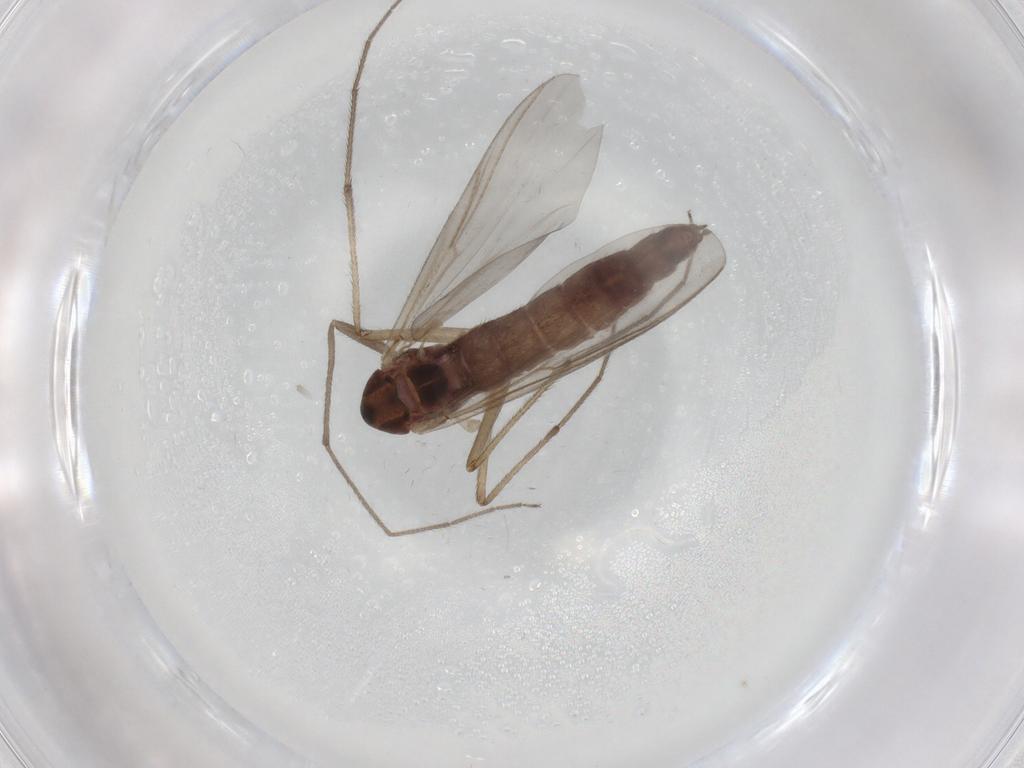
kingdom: Animalia
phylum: Arthropoda
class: Insecta
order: Diptera
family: Chironomidae
